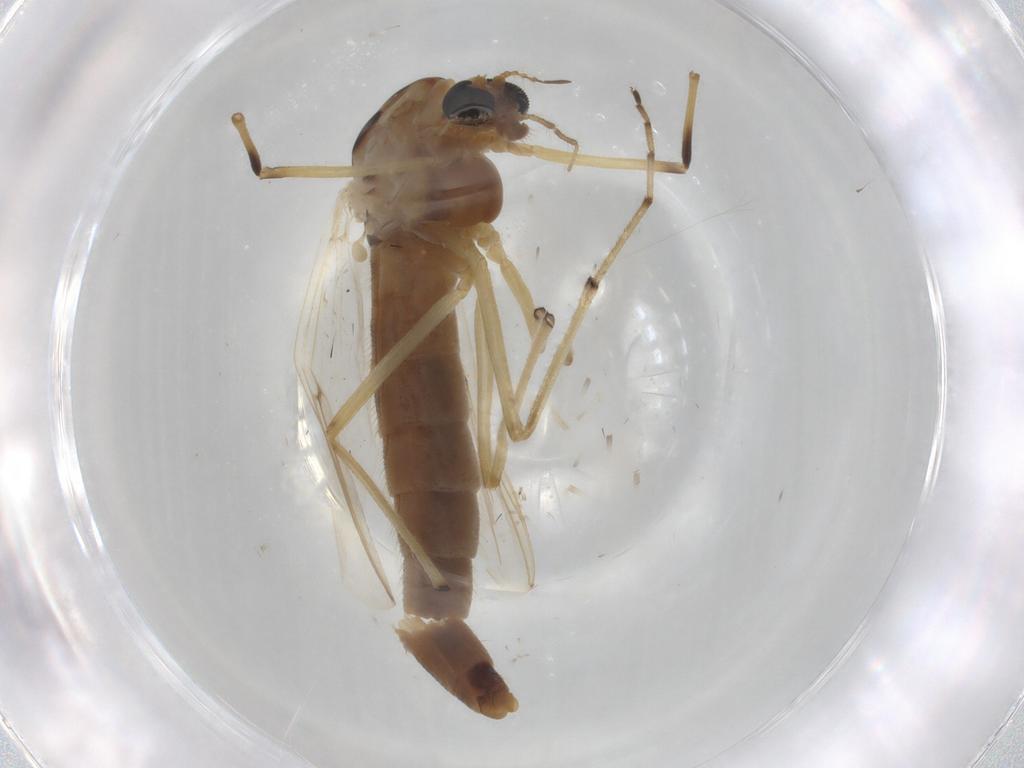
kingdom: Animalia
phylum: Arthropoda
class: Insecta
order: Diptera
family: Chironomidae
